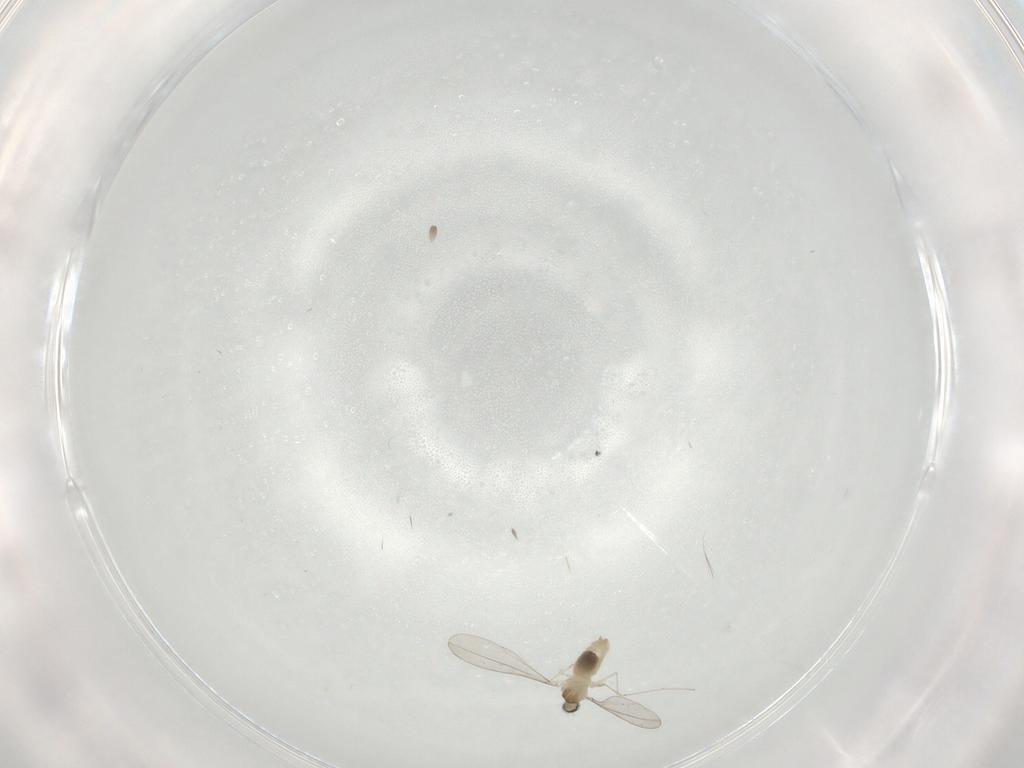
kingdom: Animalia
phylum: Arthropoda
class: Insecta
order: Diptera
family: Cecidomyiidae
